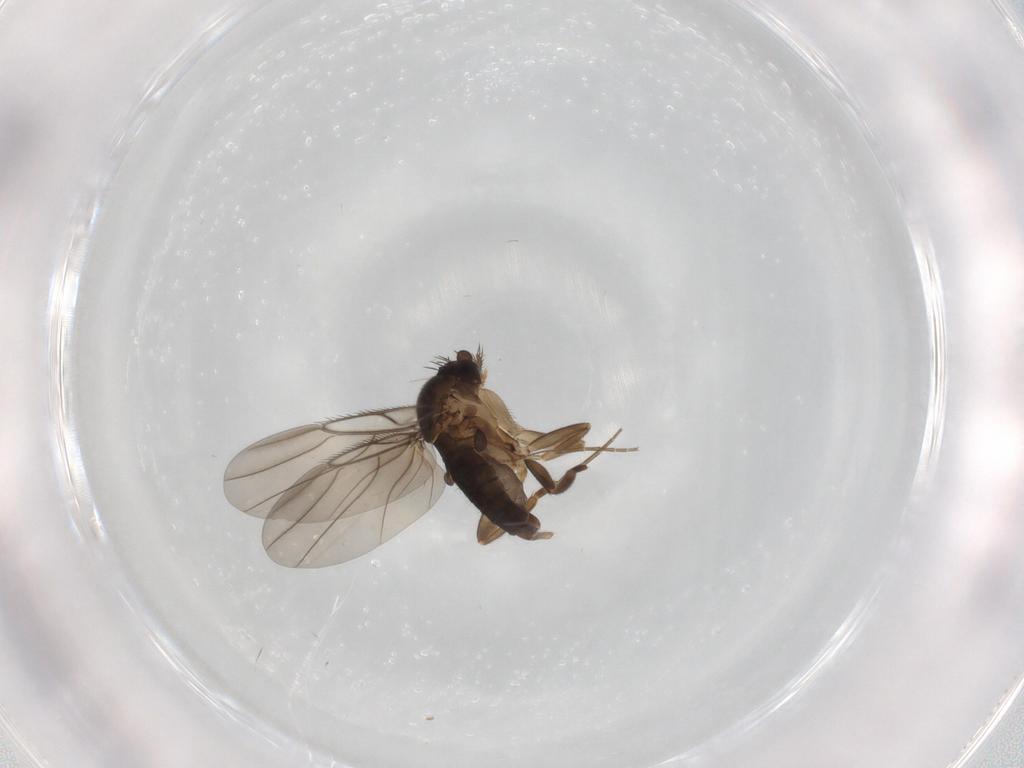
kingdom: Animalia
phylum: Arthropoda
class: Insecta
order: Diptera
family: Phoridae
